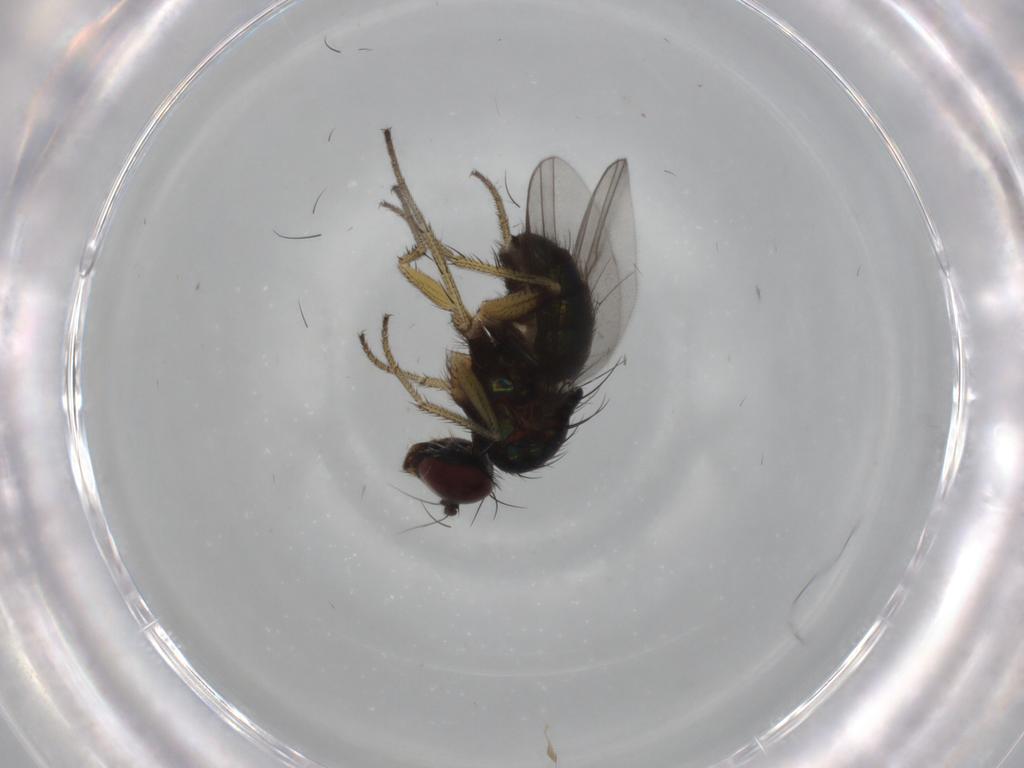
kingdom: Animalia
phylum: Arthropoda
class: Insecta
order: Diptera
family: Dolichopodidae
